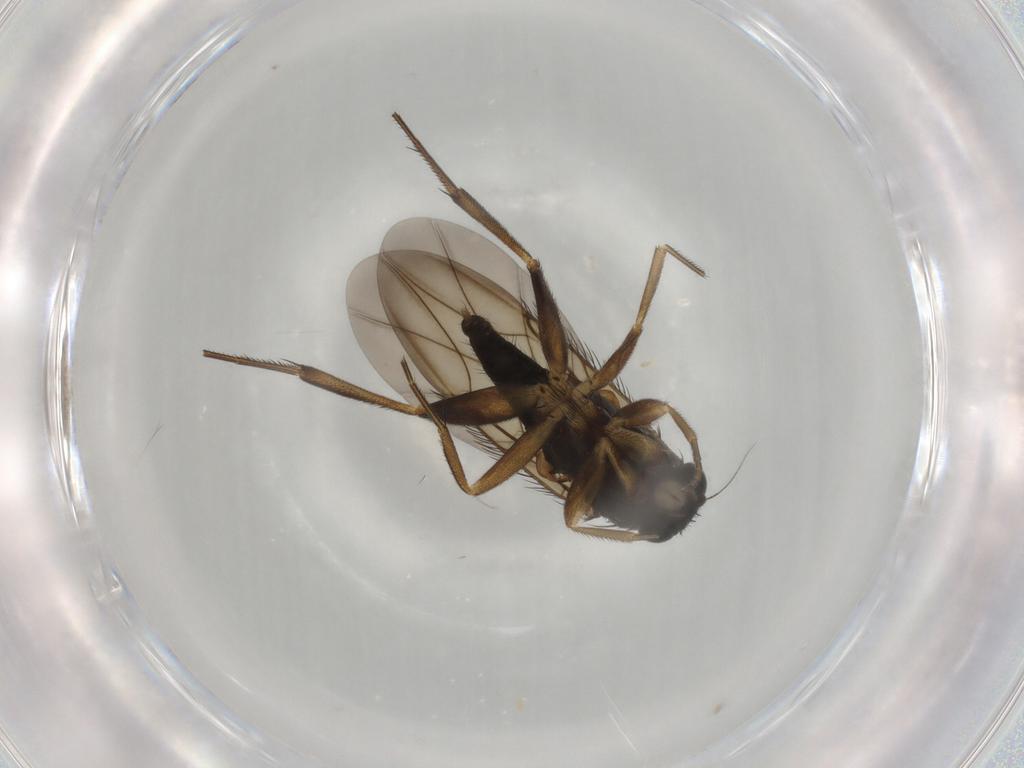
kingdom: Animalia
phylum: Arthropoda
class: Insecta
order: Diptera
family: Phoridae
